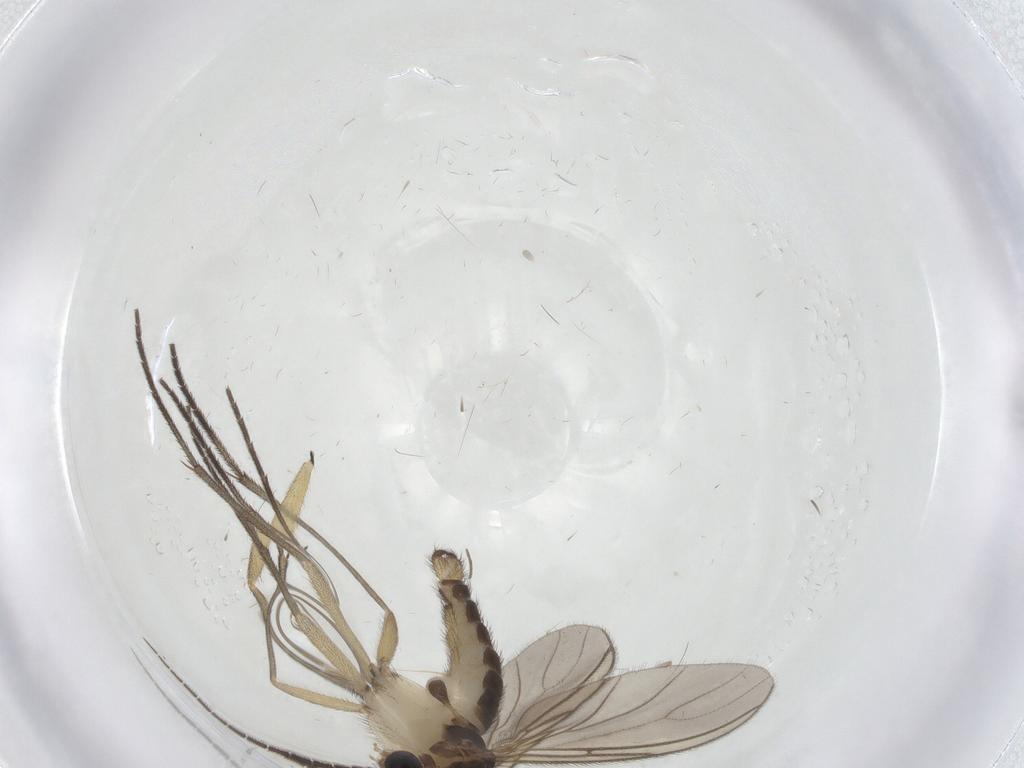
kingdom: Animalia
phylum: Arthropoda
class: Insecta
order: Diptera
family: Sciaridae
